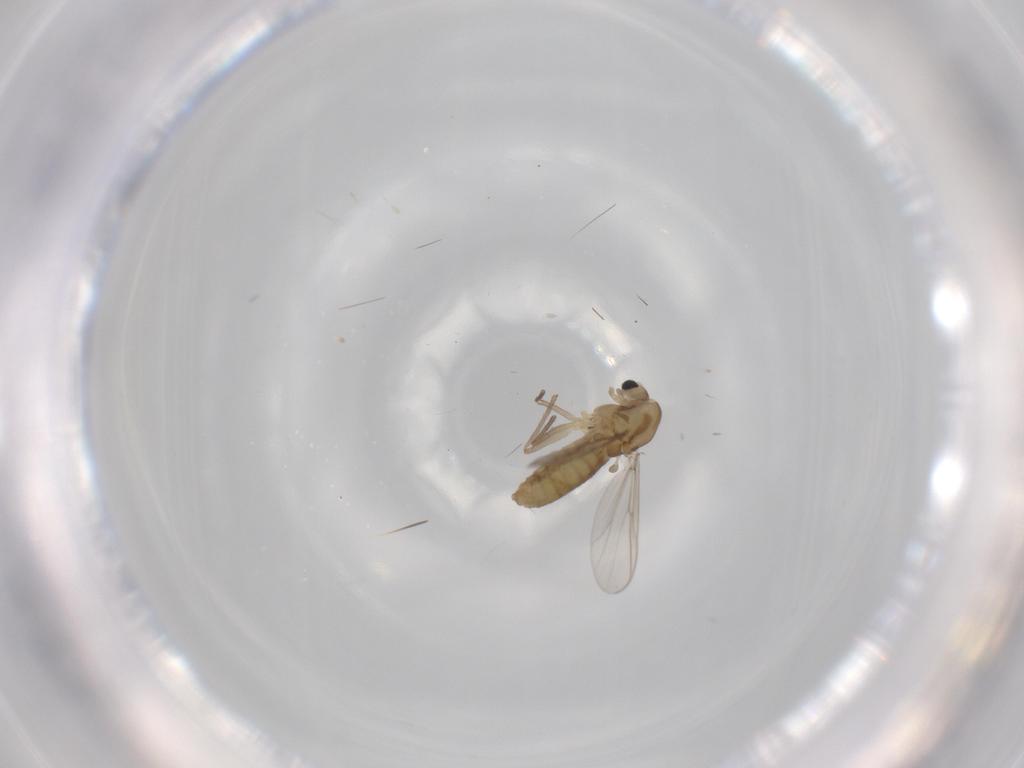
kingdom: Animalia
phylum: Arthropoda
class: Insecta
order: Diptera
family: Chironomidae
